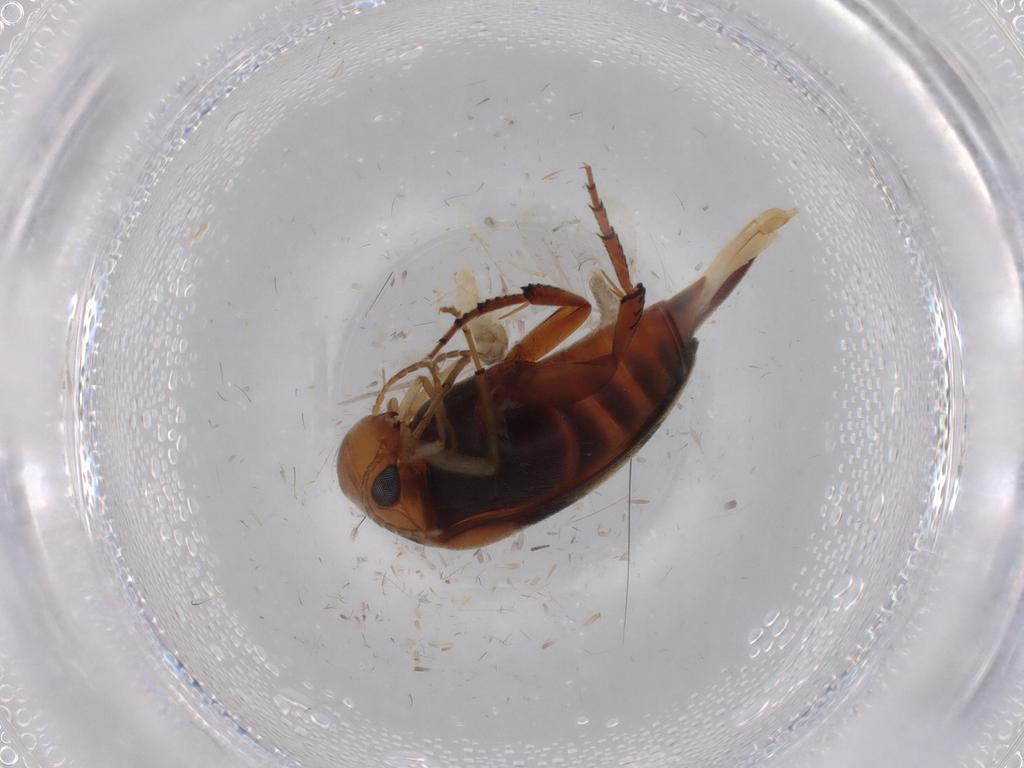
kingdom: Animalia
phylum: Arthropoda
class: Insecta
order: Coleoptera
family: Mordellidae
